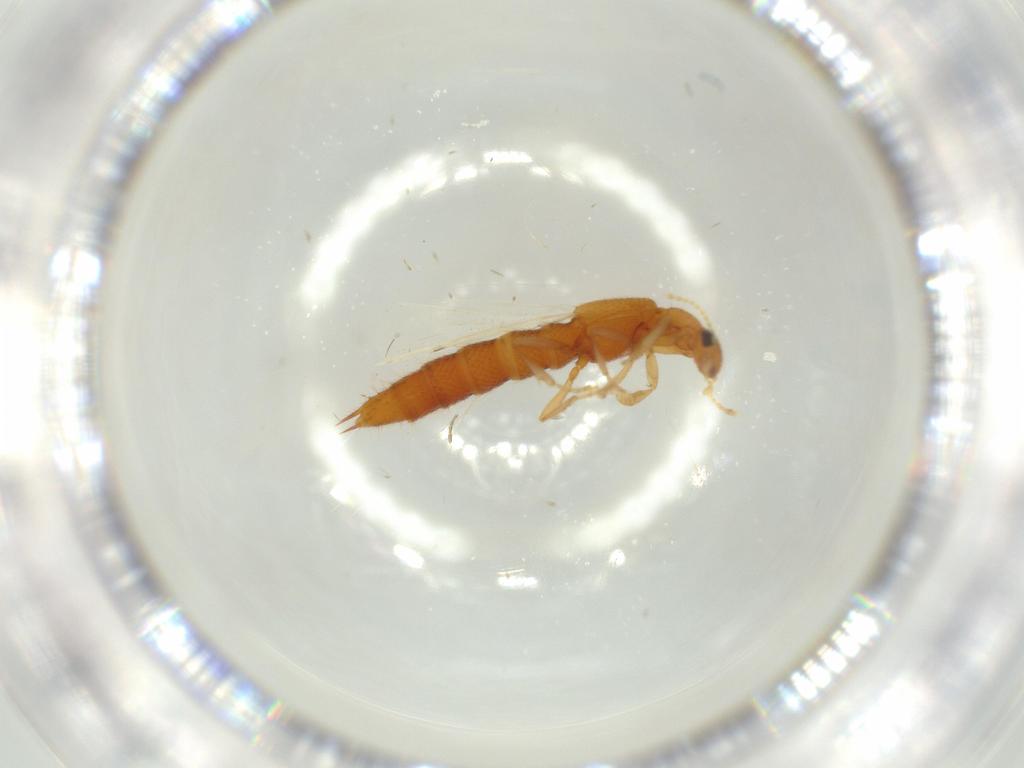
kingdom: Animalia
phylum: Arthropoda
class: Insecta
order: Coleoptera
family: Staphylinidae
